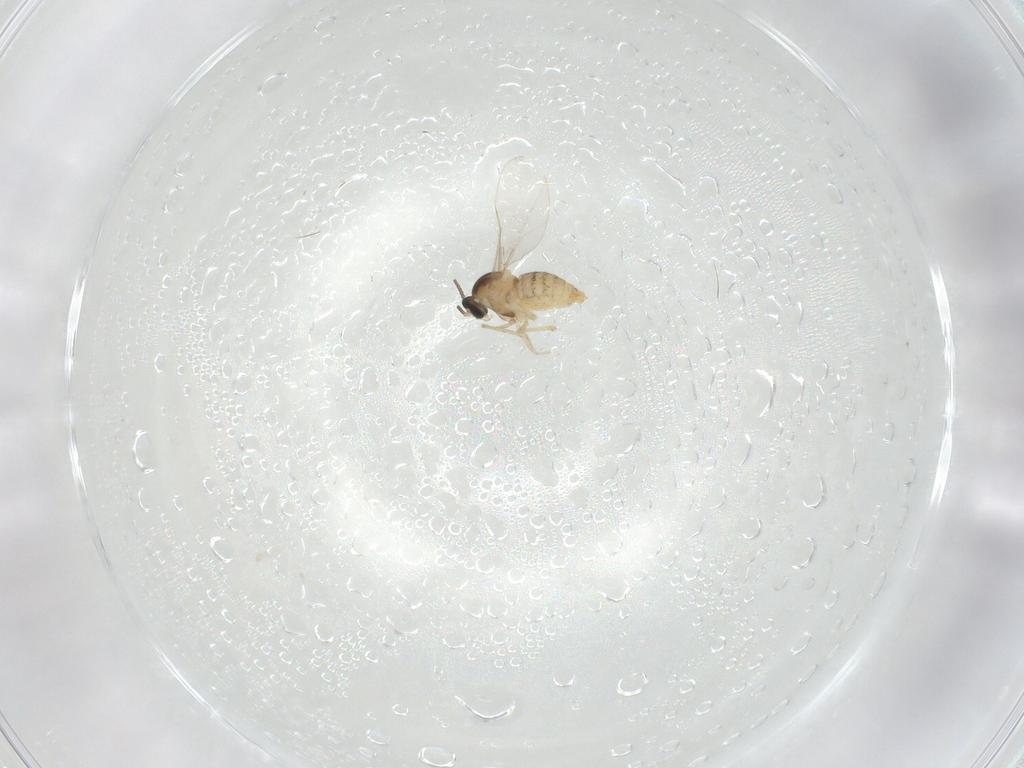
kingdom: Animalia
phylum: Arthropoda
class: Insecta
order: Diptera
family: Cecidomyiidae
